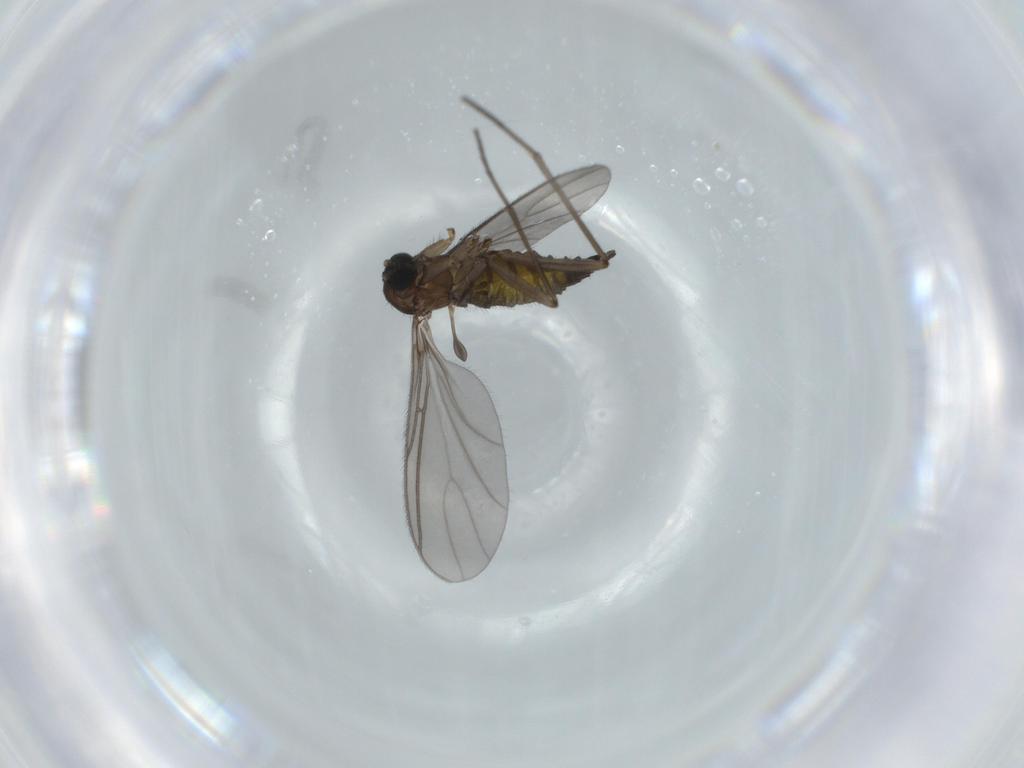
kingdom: Animalia
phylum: Arthropoda
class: Insecta
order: Diptera
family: Sciaridae
